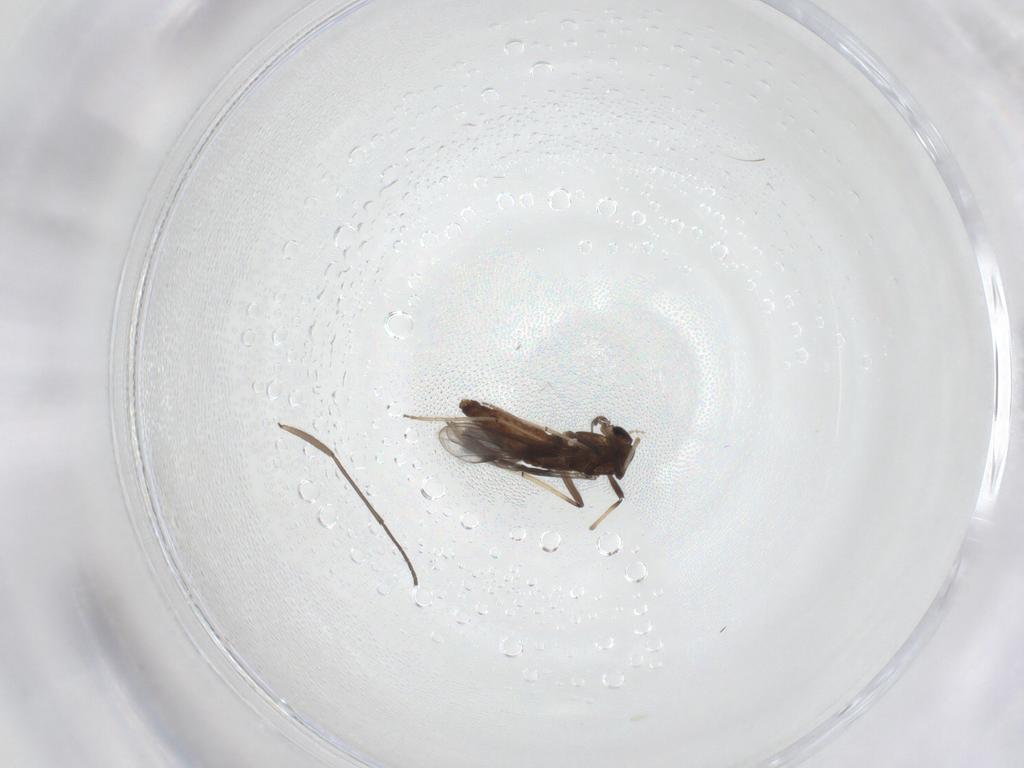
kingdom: Animalia
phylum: Arthropoda
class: Insecta
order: Diptera
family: Chironomidae
